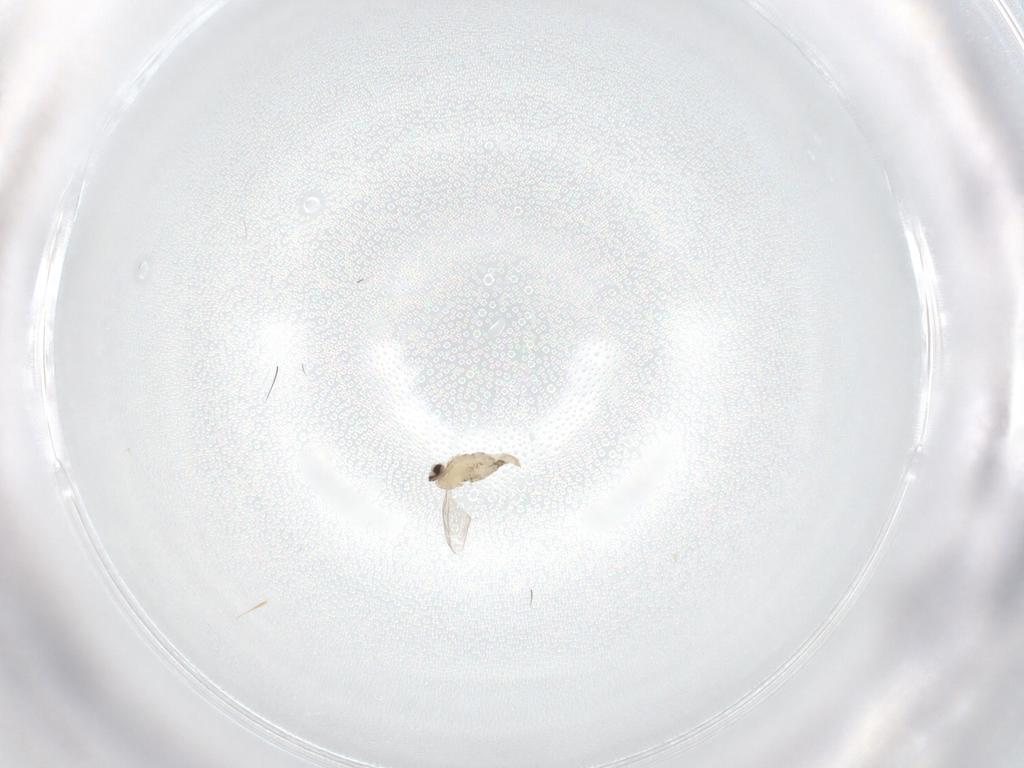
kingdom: Animalia
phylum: Arthropoda
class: Insecta
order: Diptera
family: Cecidomyiidae
